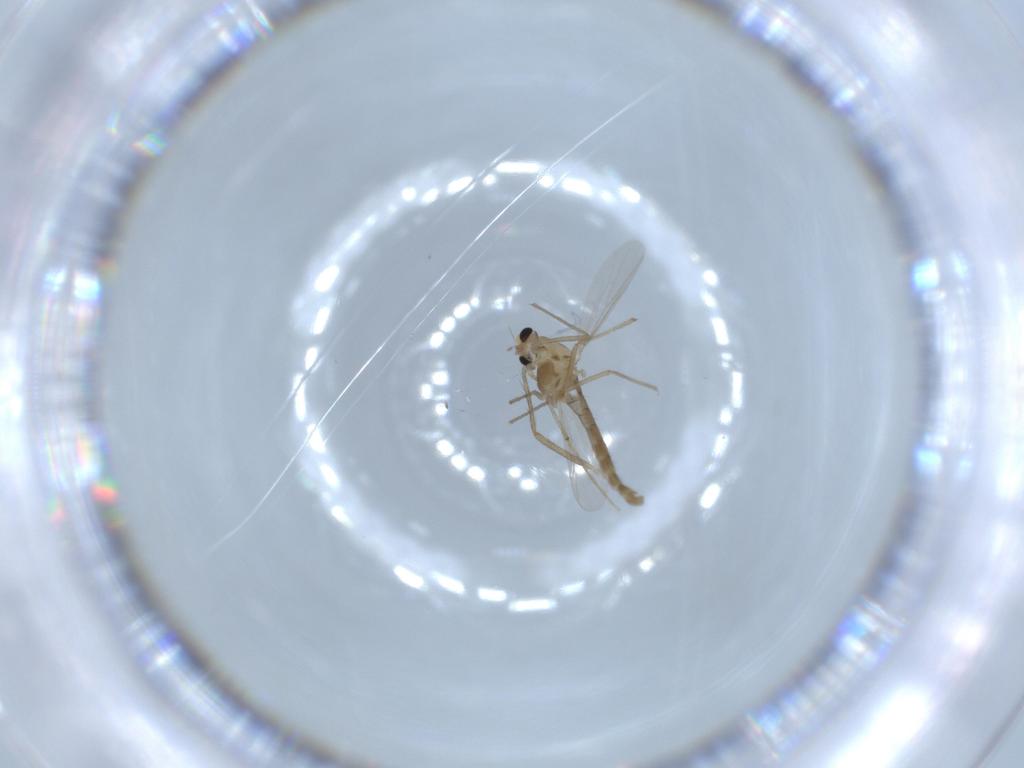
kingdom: Animalia
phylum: Arthropoda
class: Insecta
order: Diptera
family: Chironomidae
